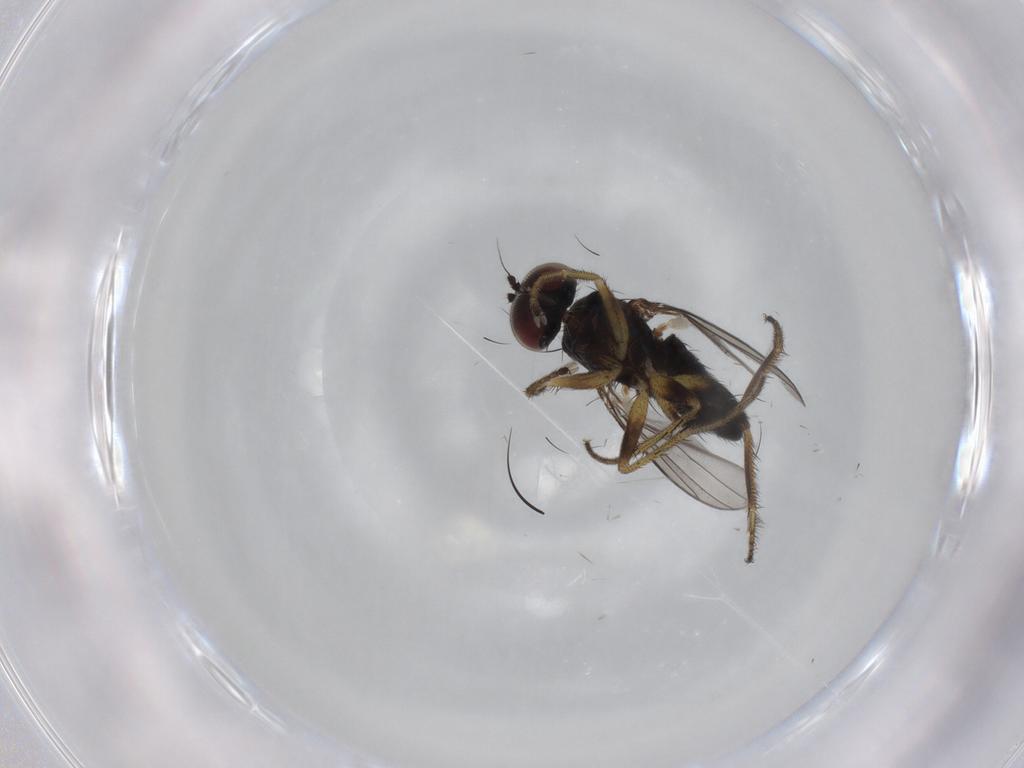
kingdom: Animalia
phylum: Arthropoda
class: Insecta
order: Diptera
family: Dolichopodidae
